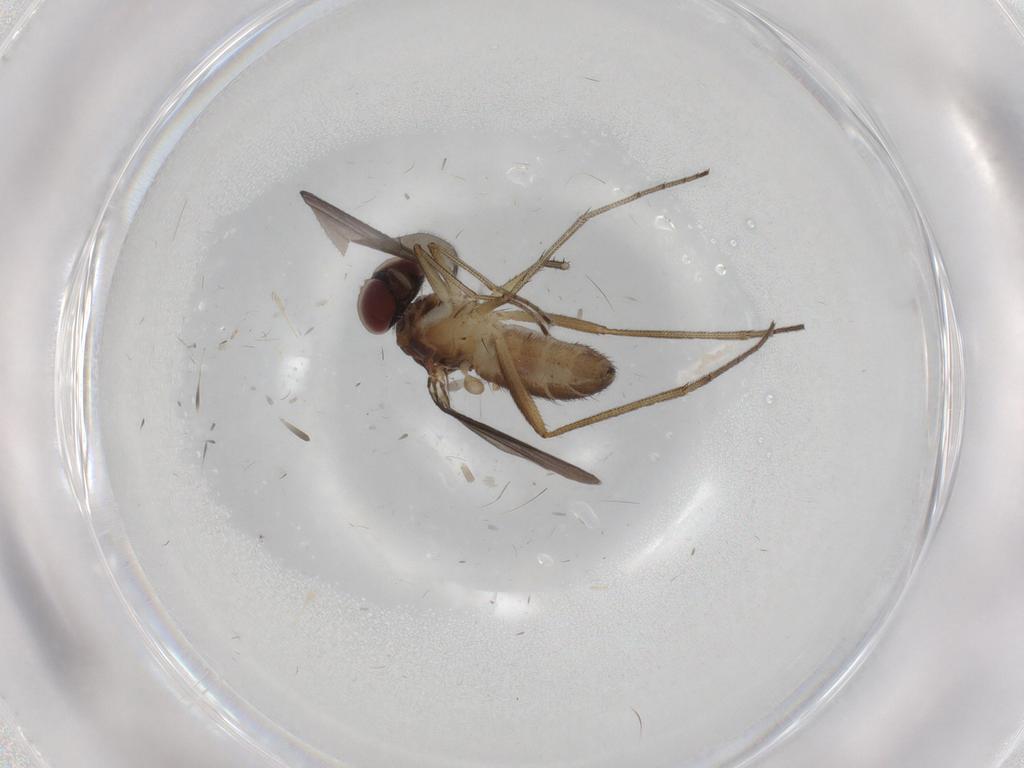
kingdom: Animalia
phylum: Arthropoda
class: Insecta
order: Diptera
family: Dolichopodidae
